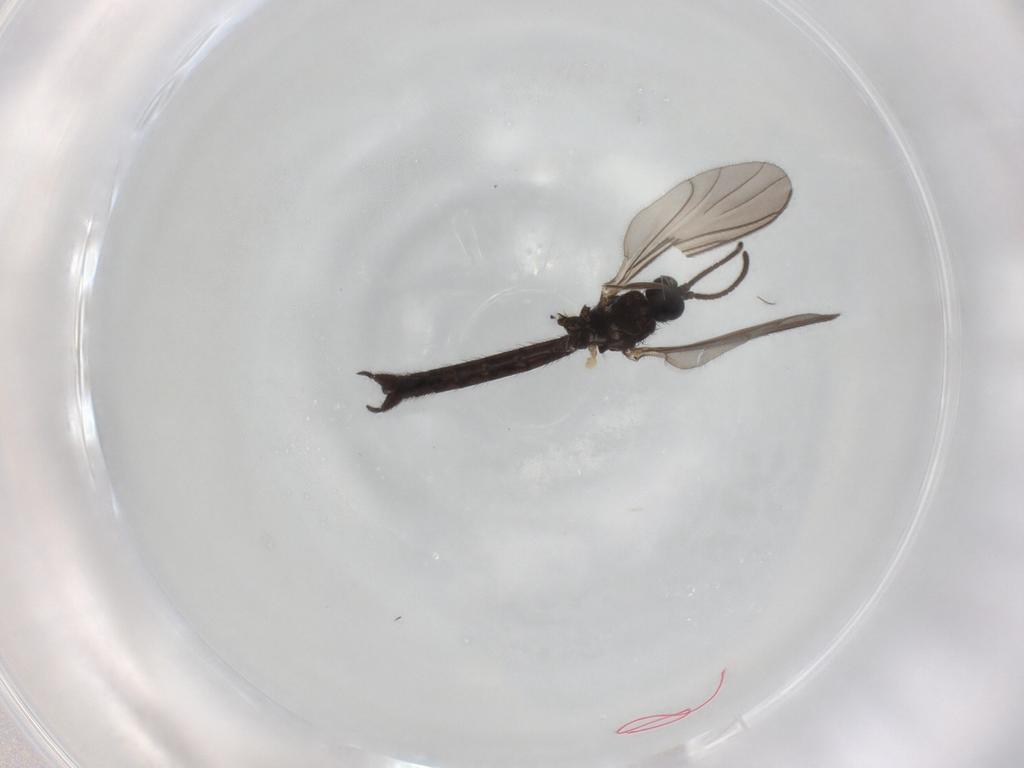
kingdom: Animalia
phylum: Arthropoda
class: Insecta
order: Diptera
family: Keroplatidae
